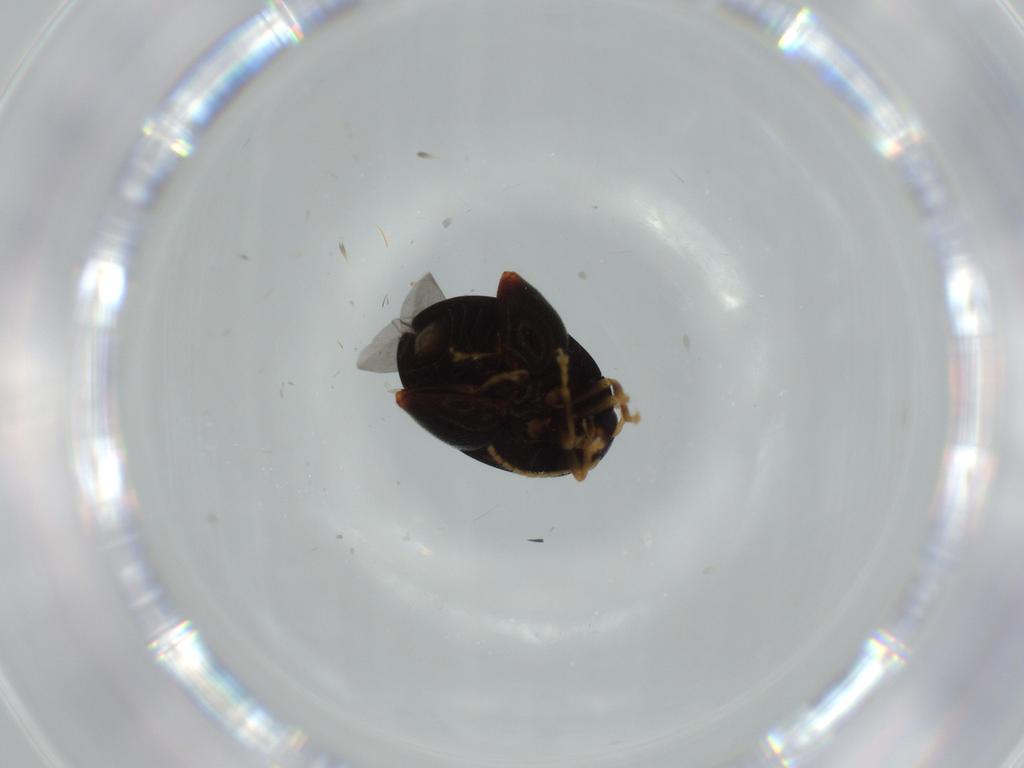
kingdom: Animalia
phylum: Arthropoda
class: Insecta
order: Coleoptera
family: Chrysomelidae
